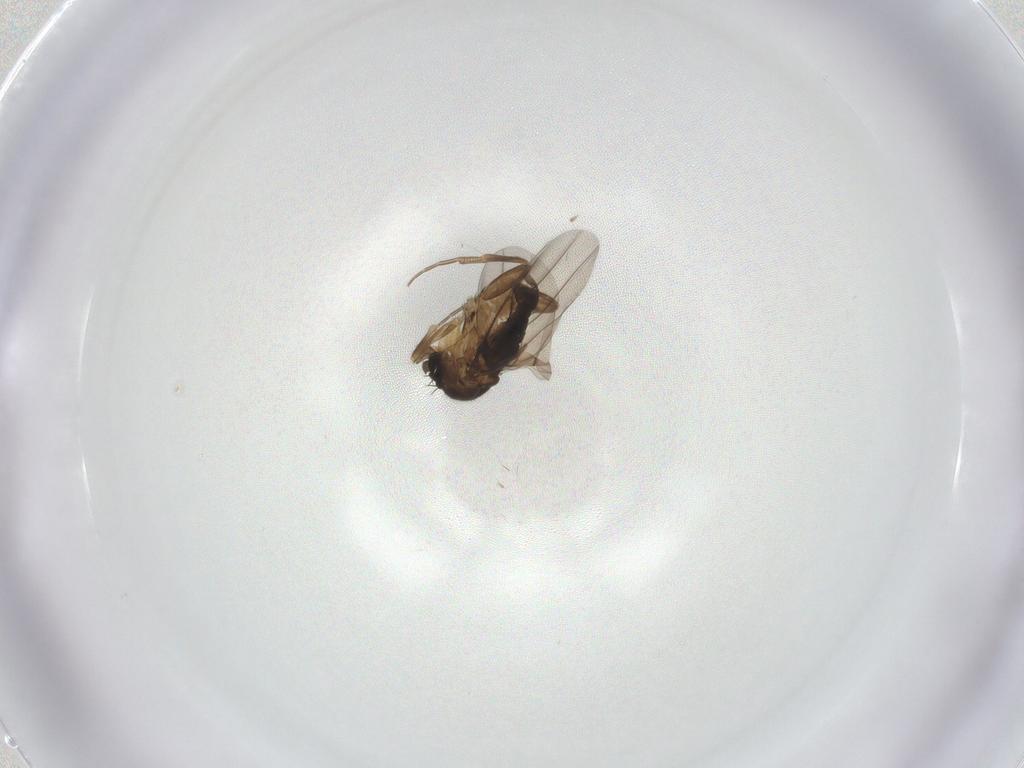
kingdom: Animalia
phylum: Arthropoda
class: Insecta
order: Diptera
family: Phoridae
